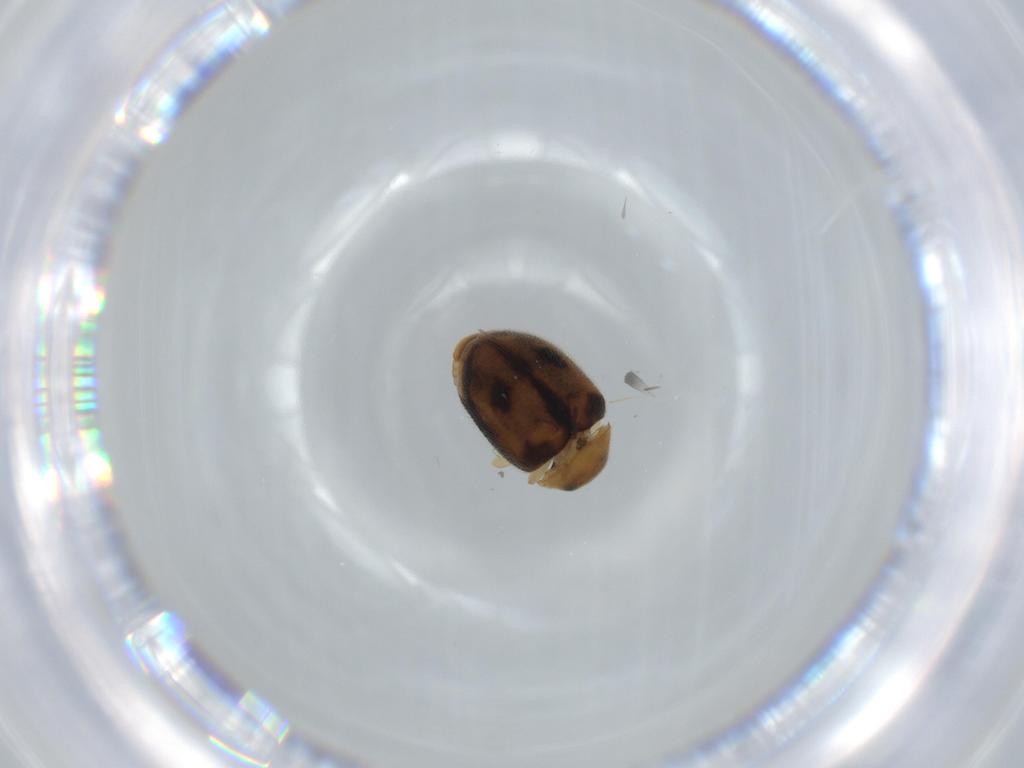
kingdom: Animalia
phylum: Arthropoda
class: Insecta
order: Coleoptera
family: Coccinellidae
